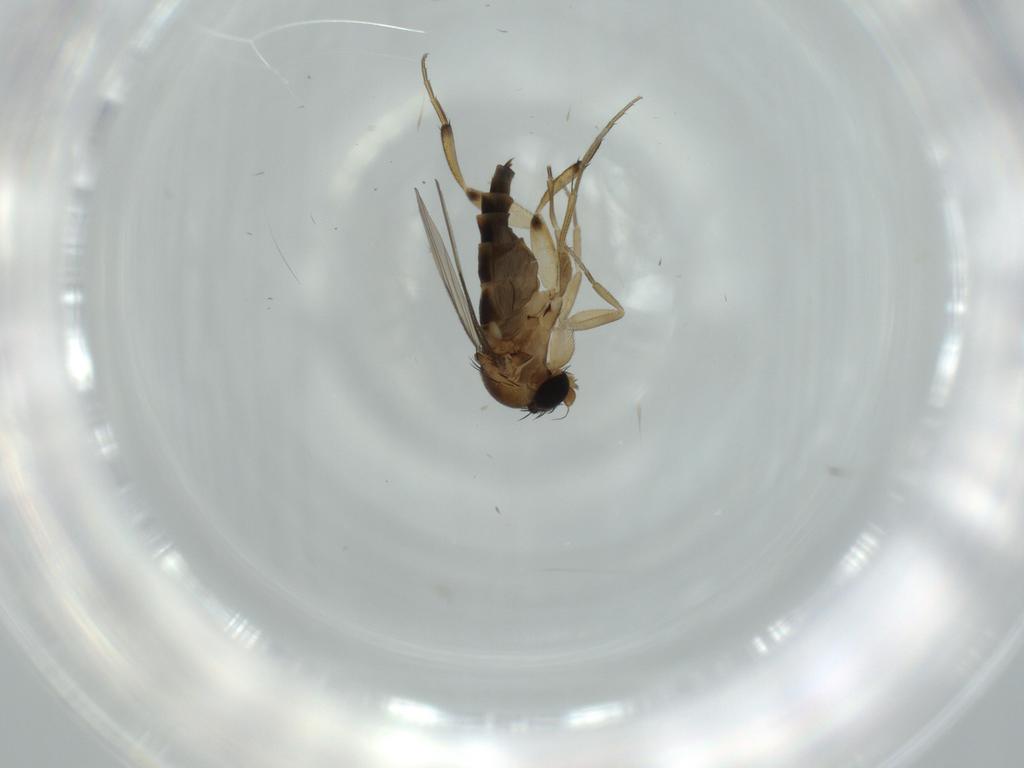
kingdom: Animalia
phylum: Arthropoda
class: Insecta
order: Diptera
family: Phoridae
